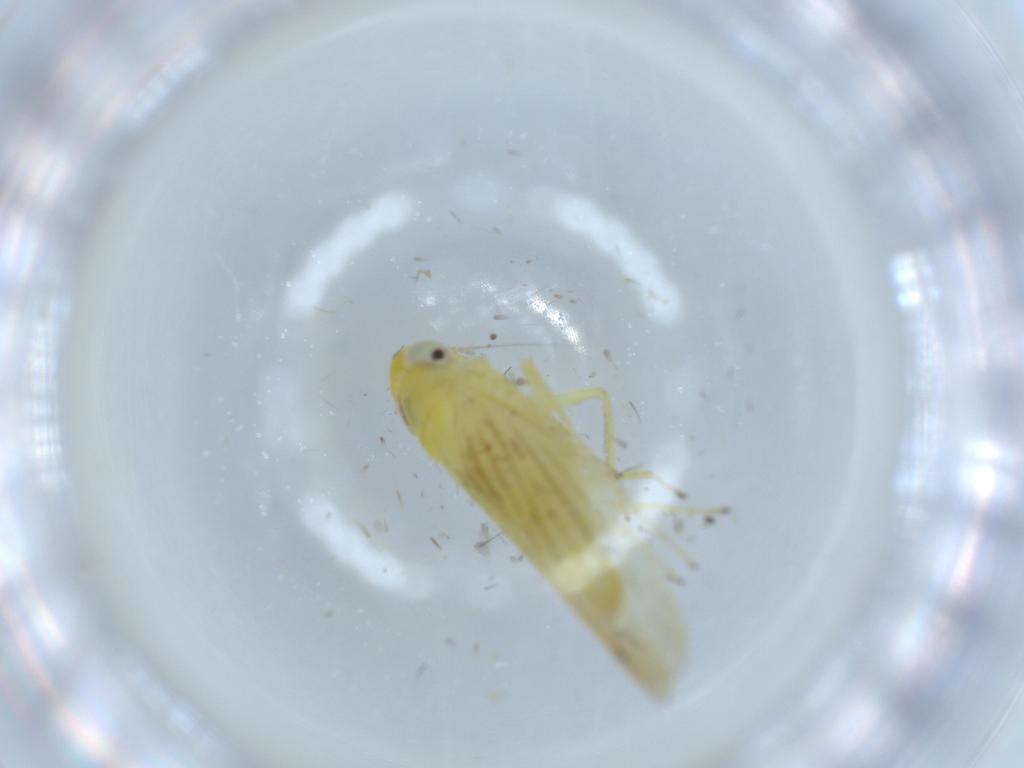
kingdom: Animalia
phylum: Arthropoda
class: Insecta
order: Hemiptera
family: Cicadellidae
